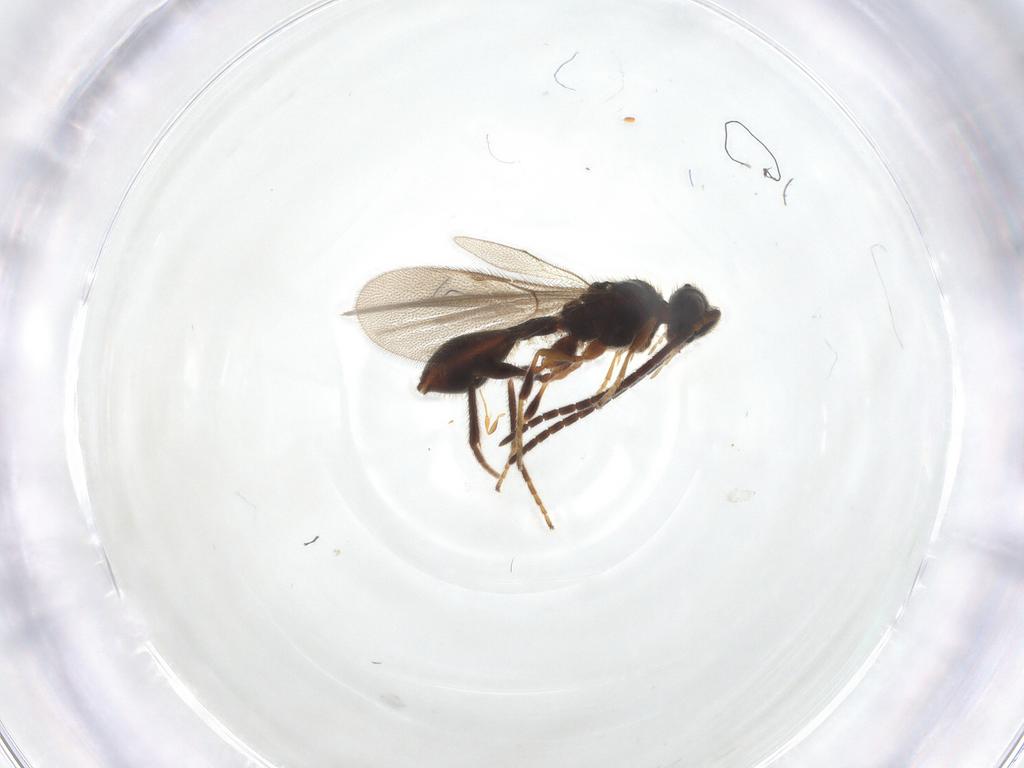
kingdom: Animalia
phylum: Arthropoda
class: Insecta
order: Hymenoptera
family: Diapriidae
